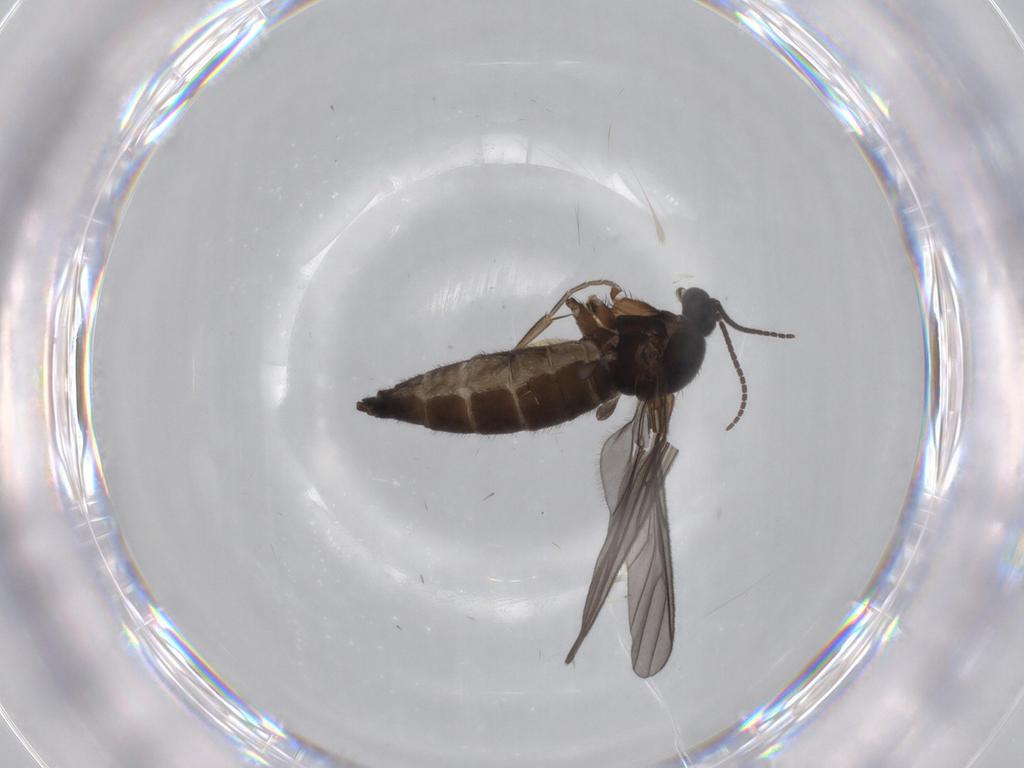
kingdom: Animalia
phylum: Arthropoda
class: Insecta
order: Diptera
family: Sciaridae
